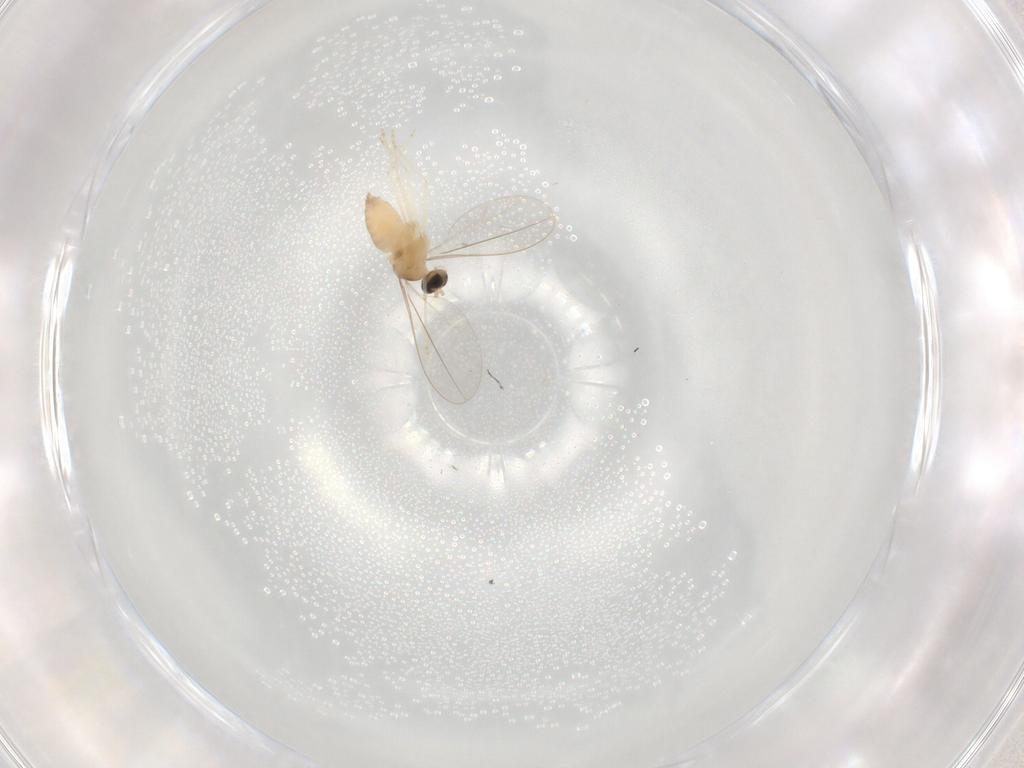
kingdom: Animalia
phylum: Arthropoda
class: Insecta
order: Diptera
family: Cecidomyiidae
